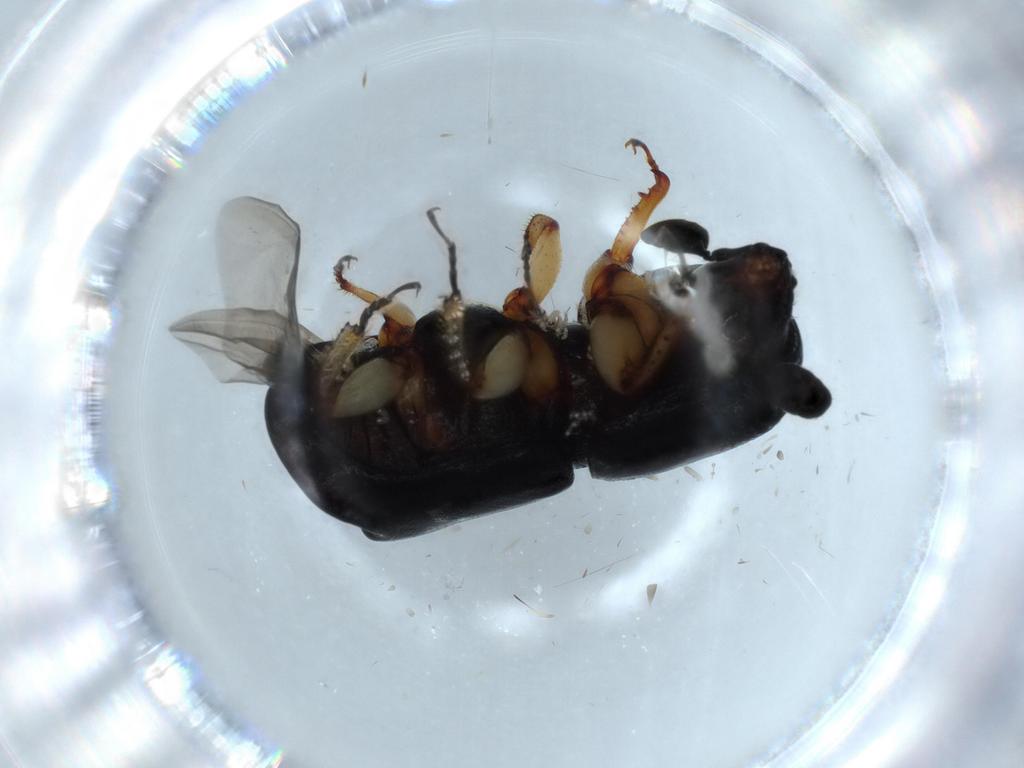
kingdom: Animalia
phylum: Arthropoda
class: Insecta
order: Coleoptera
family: Curculionidae
